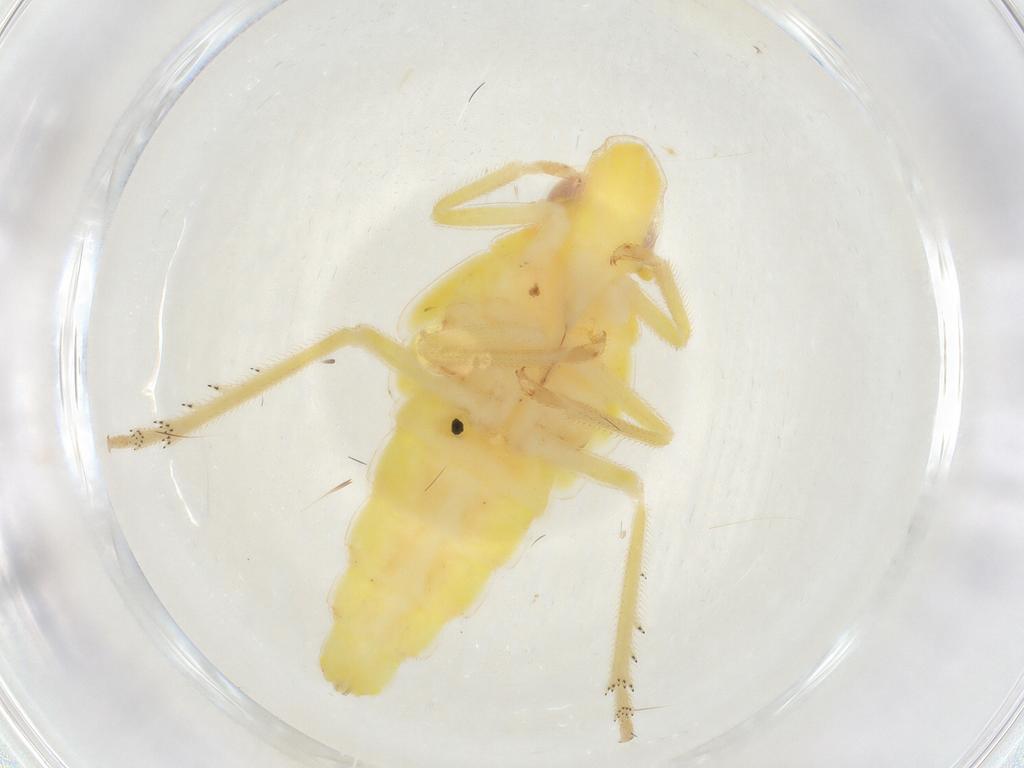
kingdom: Animalia
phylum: Arthropoda
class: Insecta
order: Hemiptera
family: Tropiduchidae
